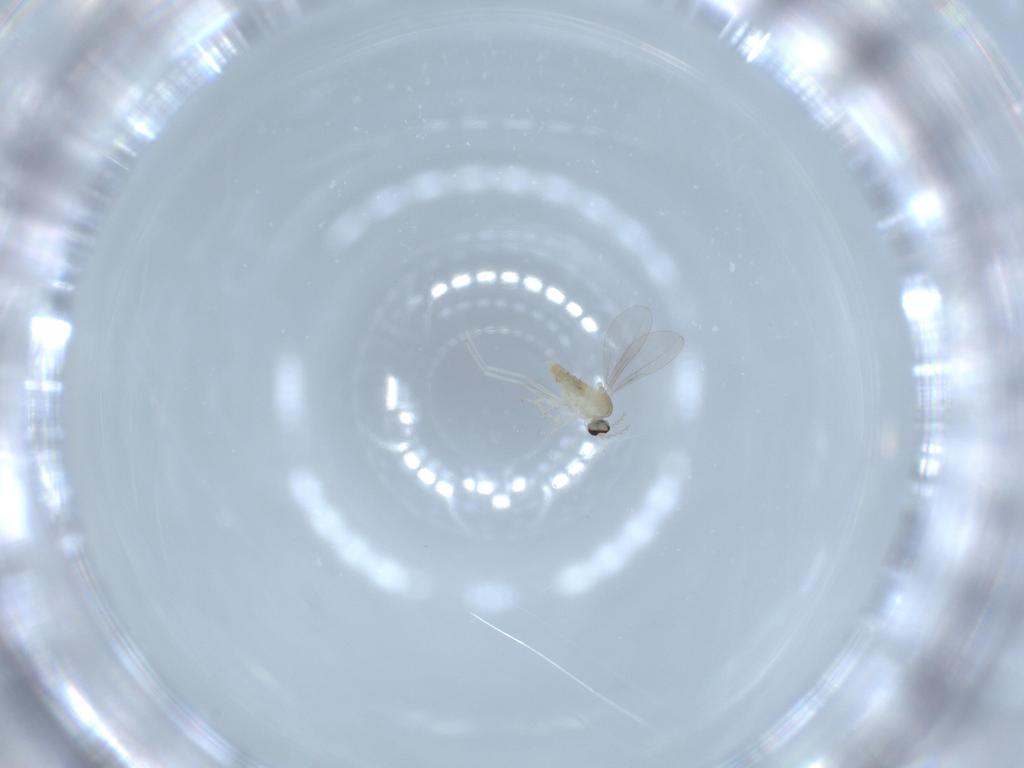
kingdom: Animalia
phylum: Arthropoda
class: Insecta
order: Diptera
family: Cecidomyiidae
